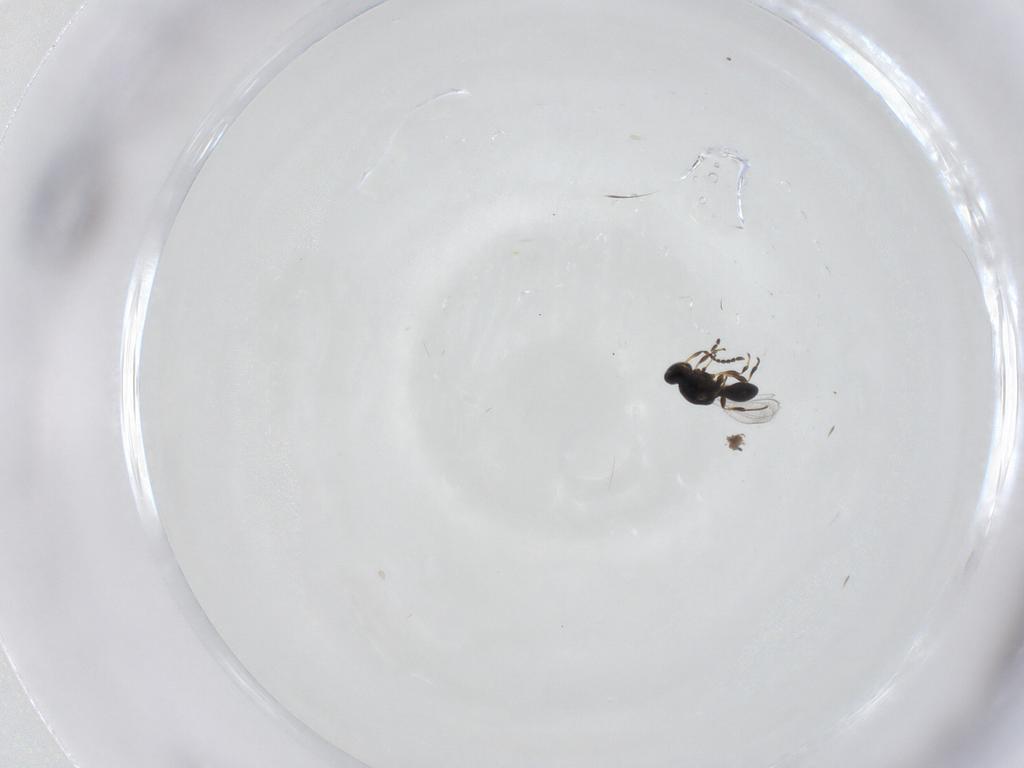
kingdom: Animalia
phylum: Arthropoda
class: Insecta
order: Hymenoptera
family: Platygastridae
